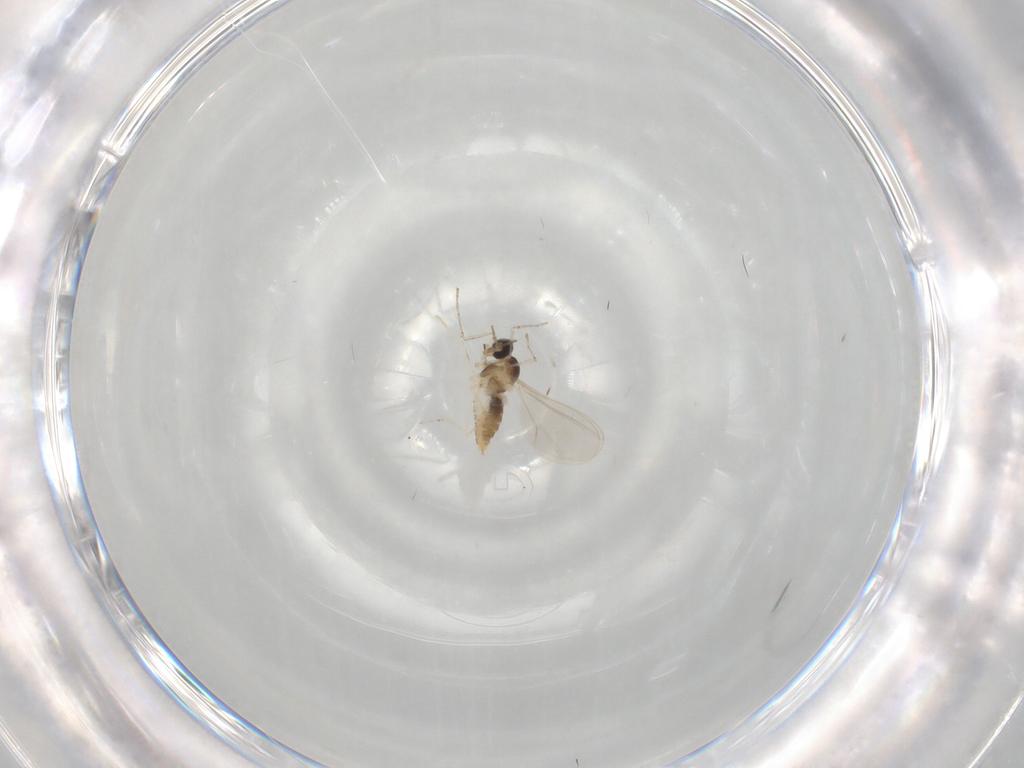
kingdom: Animalia
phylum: Arthropoda
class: Insecta
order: Diptera
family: Cecidomyiidae
